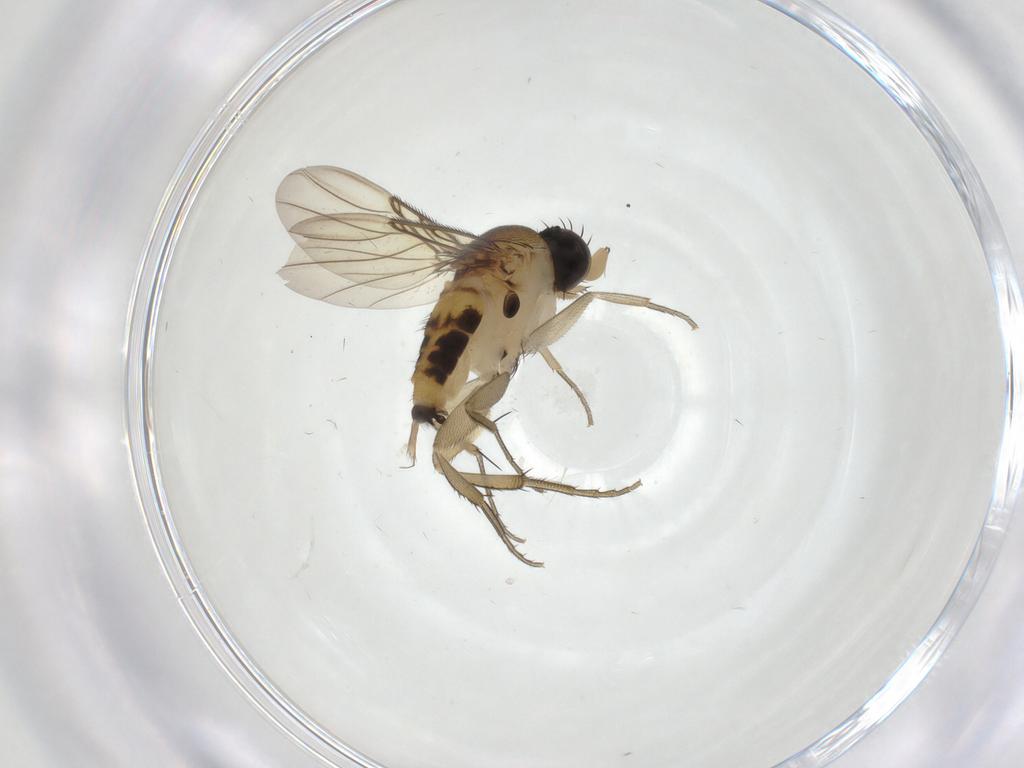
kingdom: Animalia
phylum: Arthropoda
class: Insecta
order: Diptera
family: Phoridae
